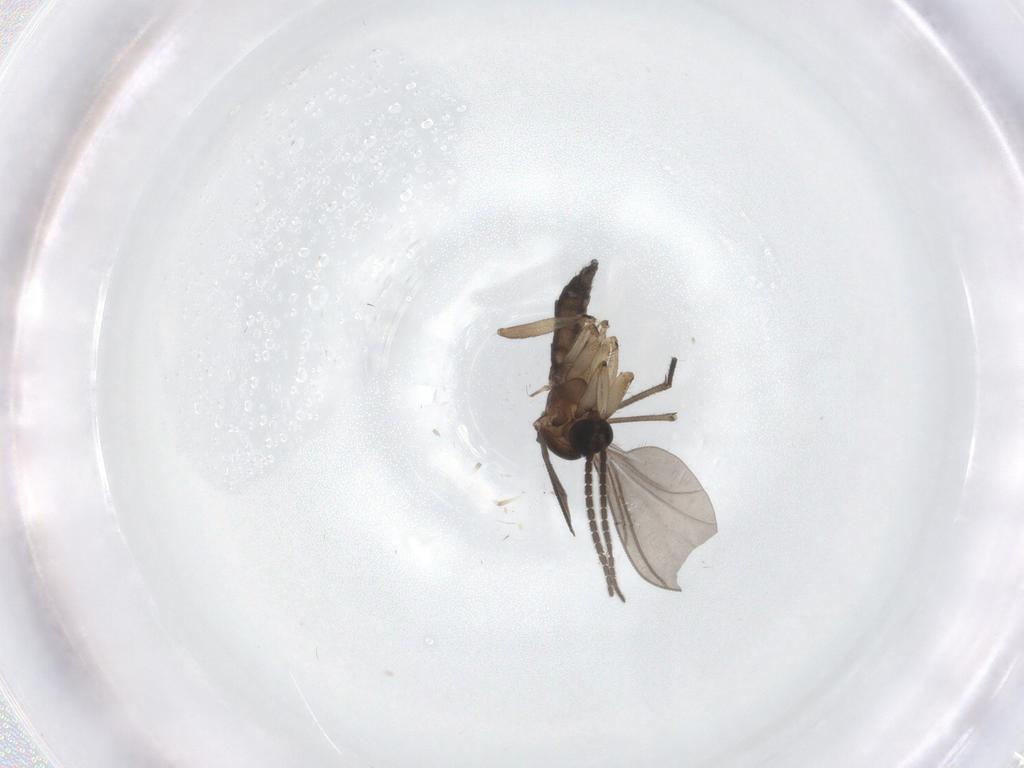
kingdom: Animalia
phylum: Arthropoda
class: Insecta
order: Diptera
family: Sciaridae
